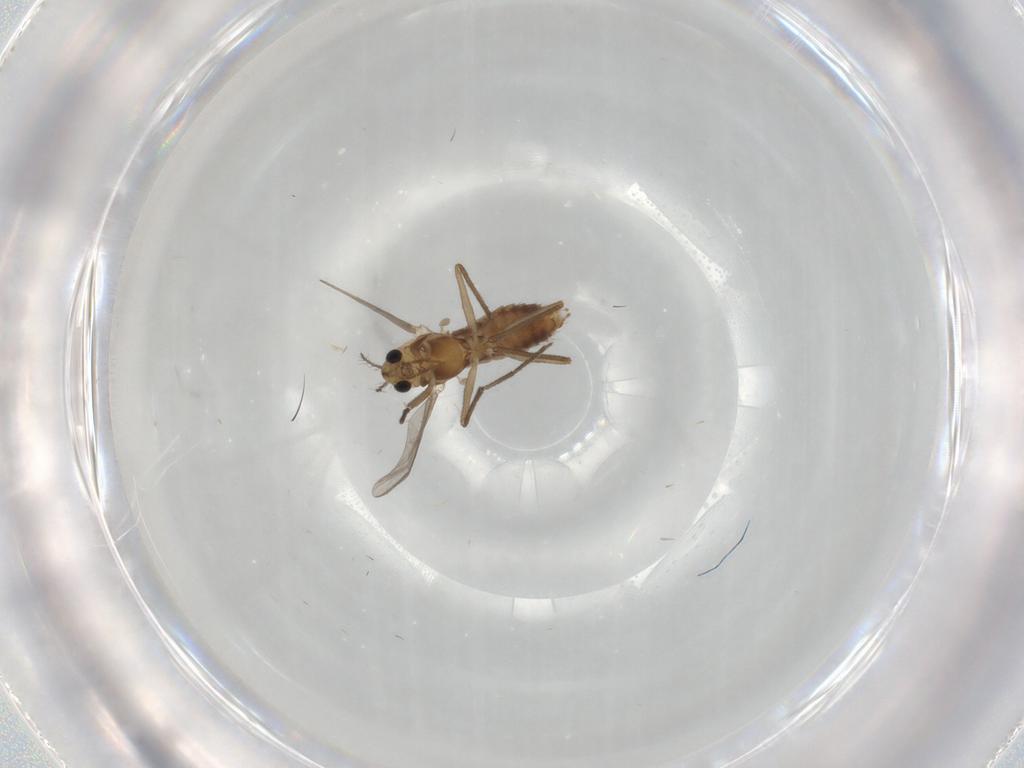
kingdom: Animalia
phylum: Arthropoda
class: Insecta
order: Diptera
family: Chironomidae
